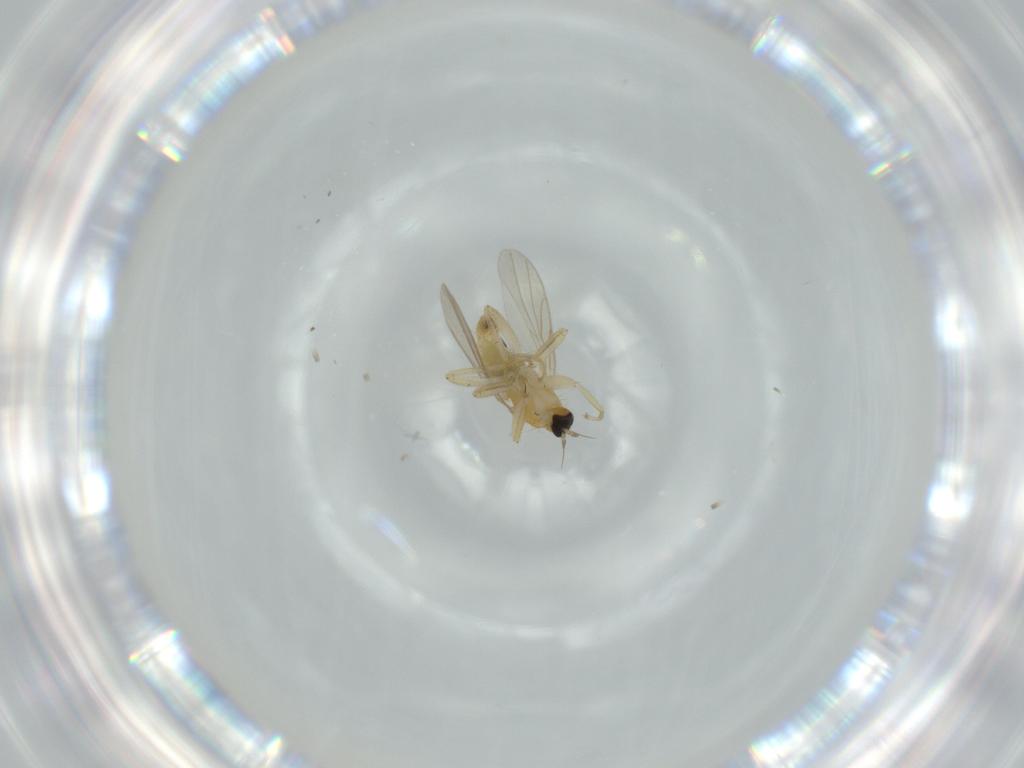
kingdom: Animalia
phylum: Arthropoda
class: Insecta
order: Diptera
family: Hybotidae
